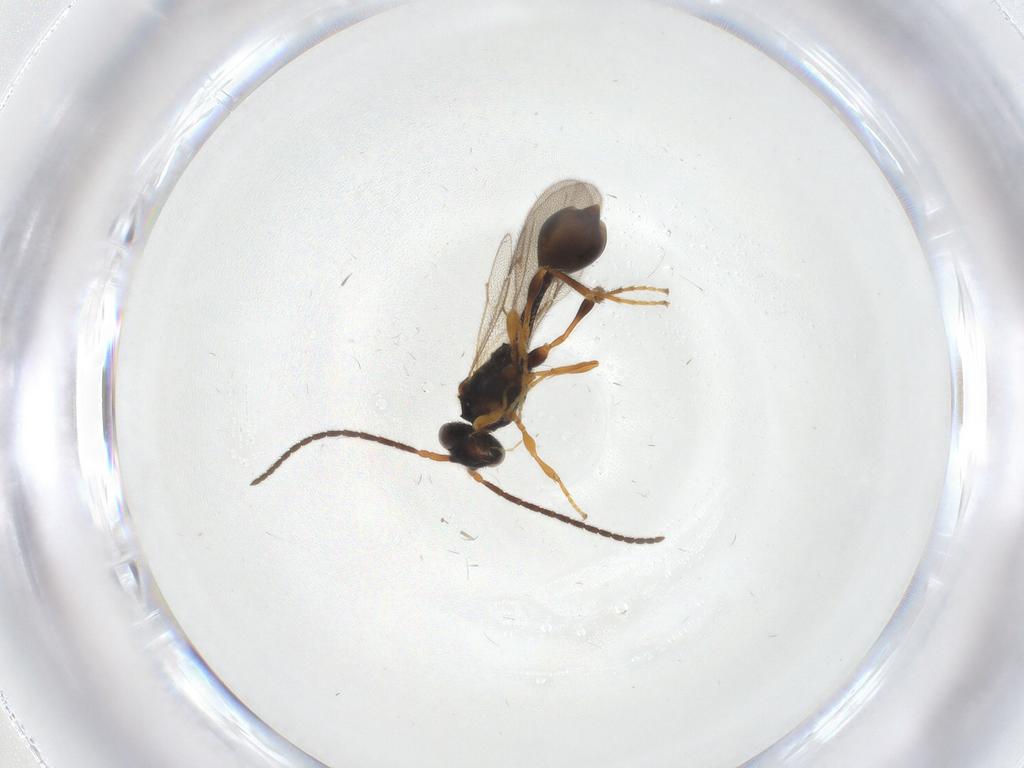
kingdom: Animalia
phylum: Arthropoda
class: Insecta
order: Hymenoptera
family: Diapriidae
